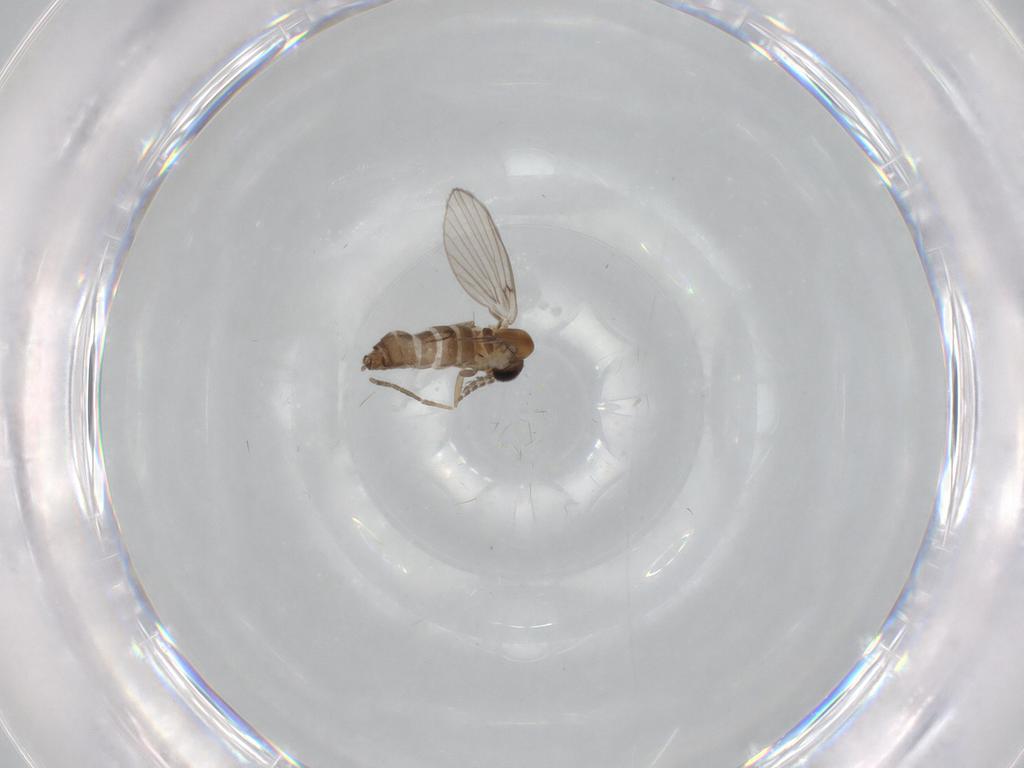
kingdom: Animalia
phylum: Arthropoda
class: Insecta
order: Diptera
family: Psychodidae
